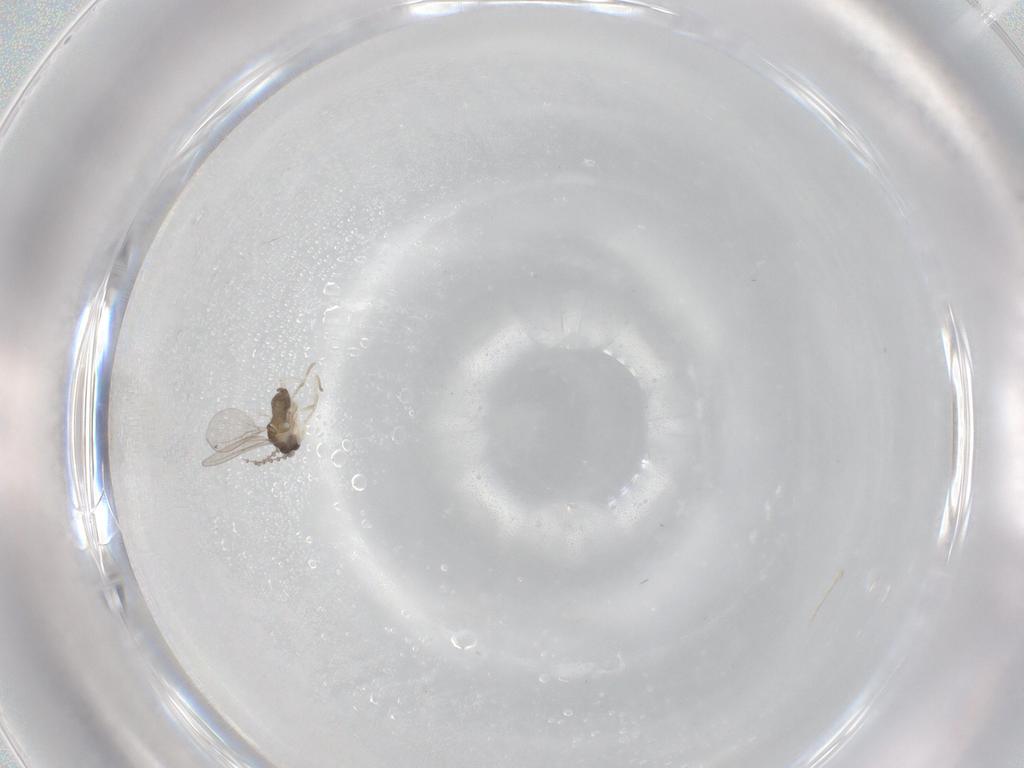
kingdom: Animalia
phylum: Arthropoda
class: Insecta
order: Diptera
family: Cecidomyiidae
